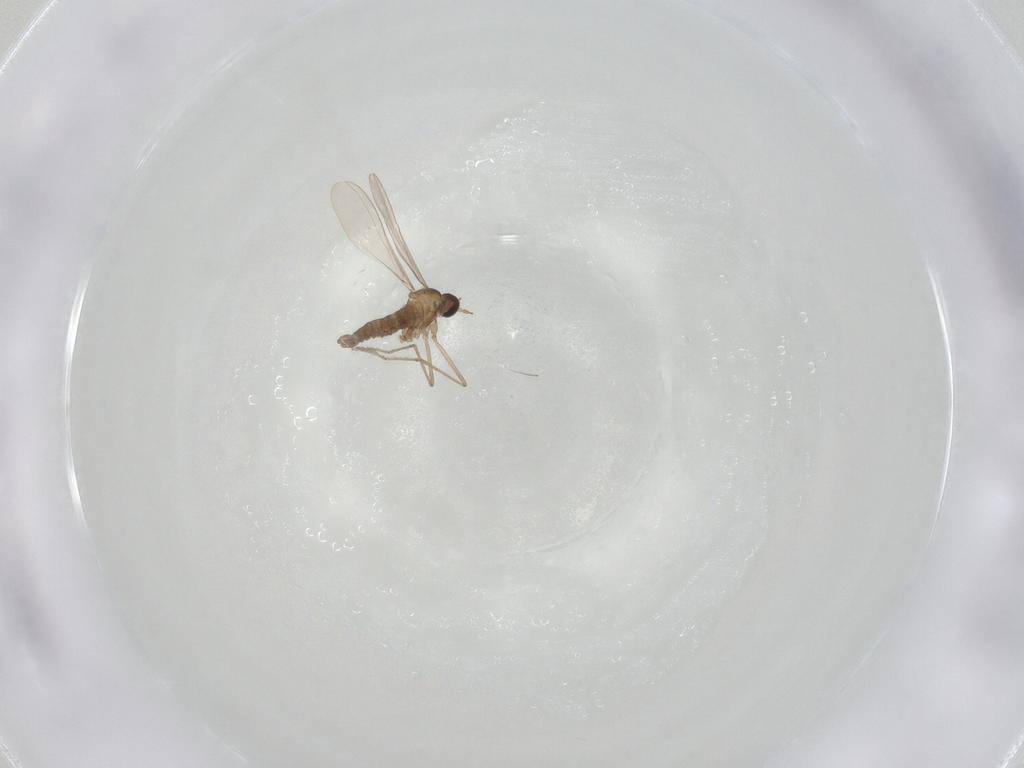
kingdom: Animalia
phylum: Arthropoda
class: Insecta
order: Diptera
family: Cecidomyiidae
